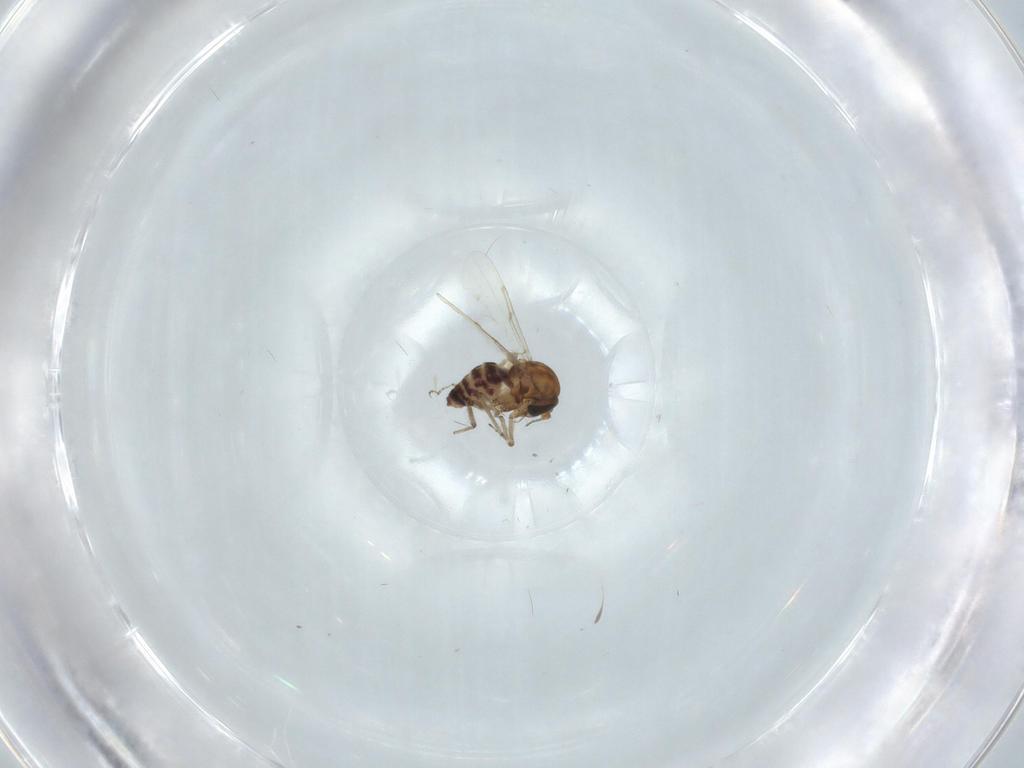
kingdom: Animalia
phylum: Arthropoda
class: Insecta
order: Diptera
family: Ceratopogonidae
